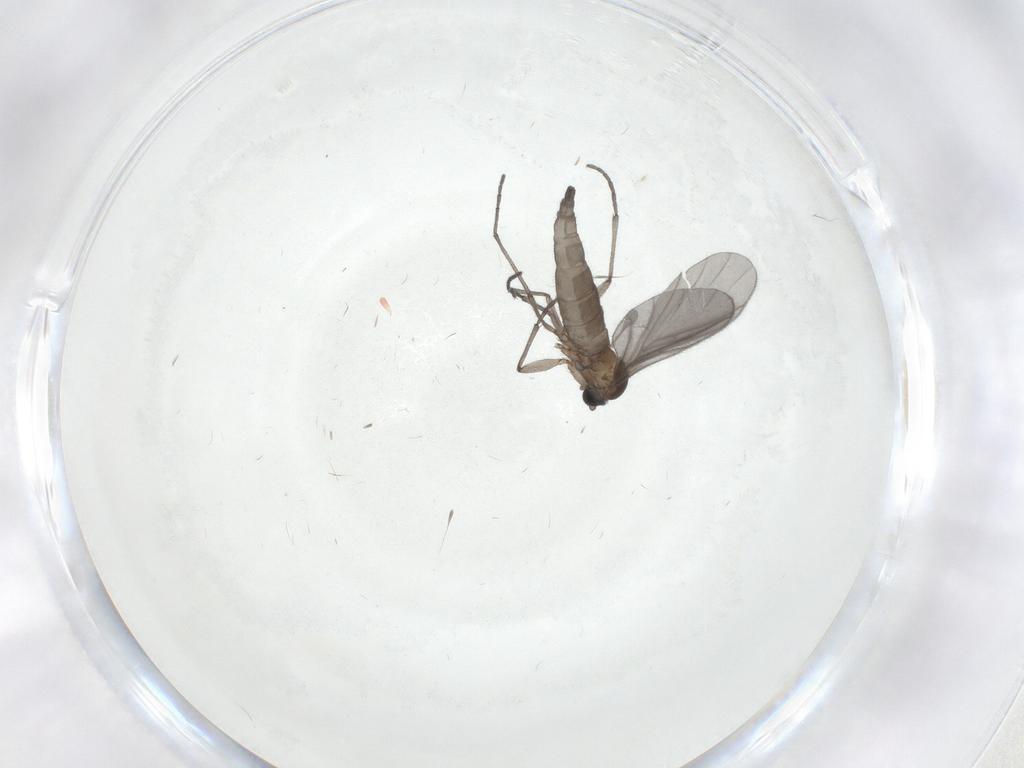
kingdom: Animalia
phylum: Arthropoda
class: Insecta
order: Diptera
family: Sciaridae
